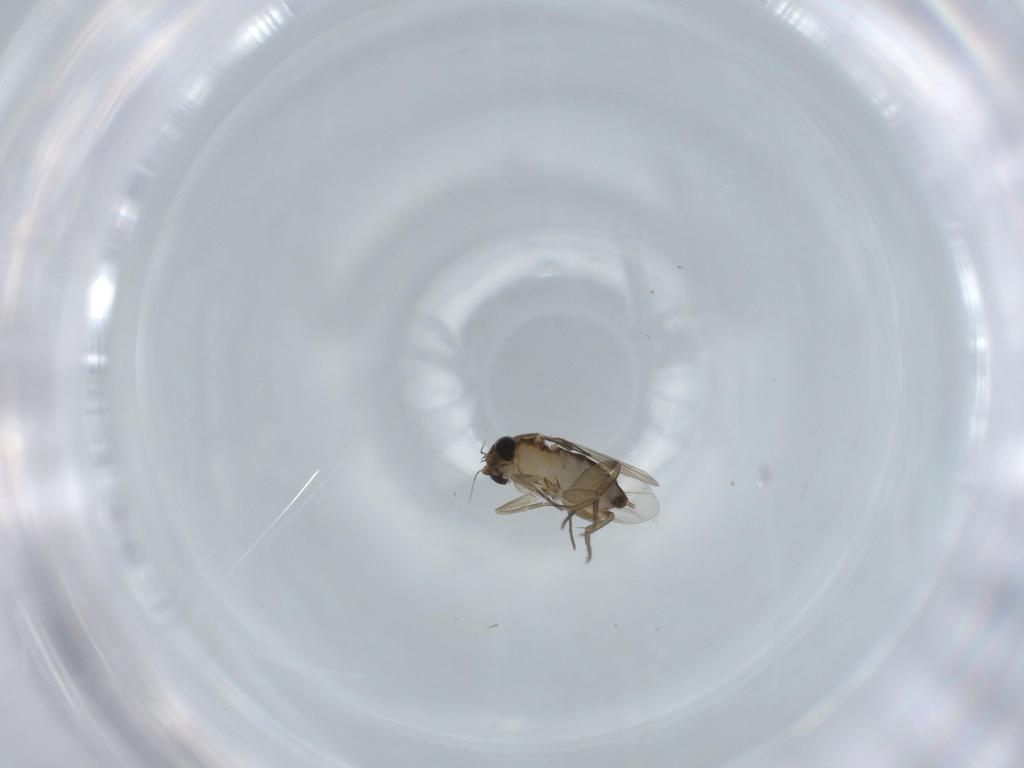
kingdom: Animalia
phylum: Arthropoda
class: Insecta
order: Diptera
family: Phoridae
